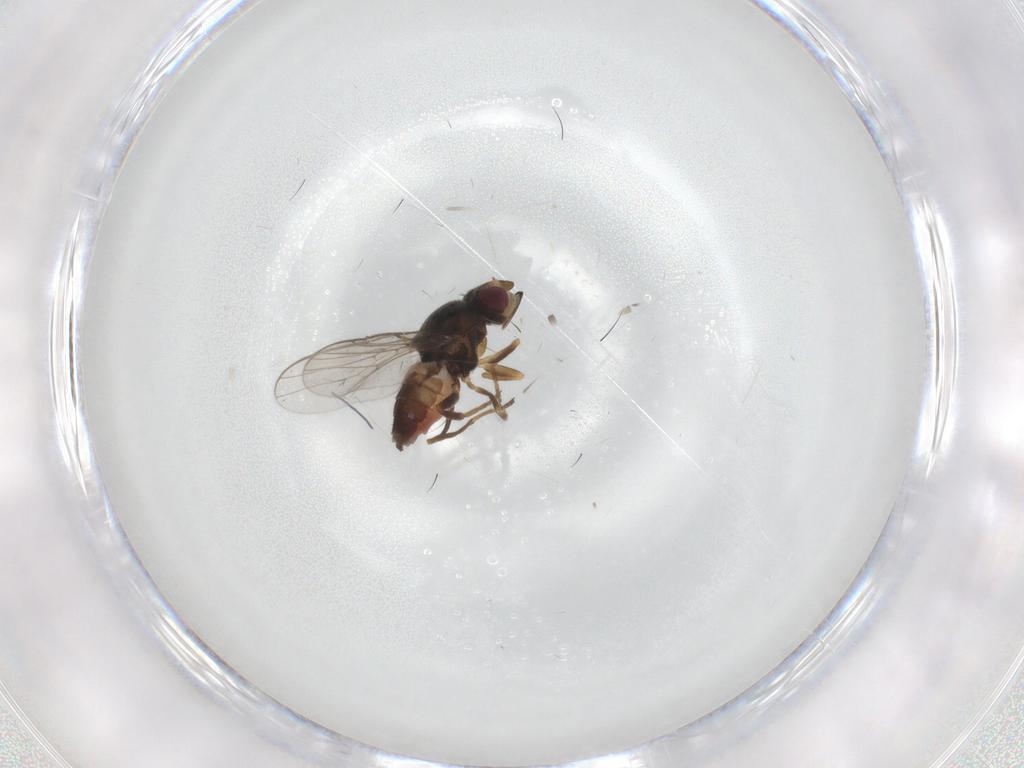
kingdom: Animalia
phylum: Arthropoda
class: Insecta
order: Diptera
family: Chloropidae
